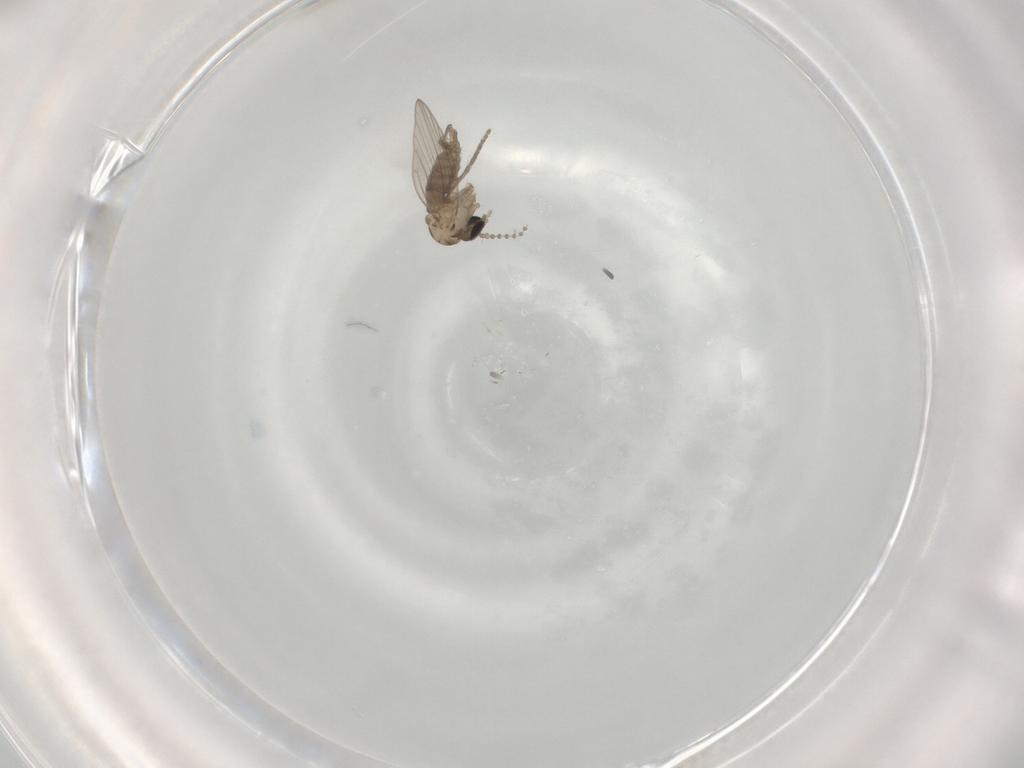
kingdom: Animalia
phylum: Arthropoda
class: Insecta
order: Diptera
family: Psychodidae
